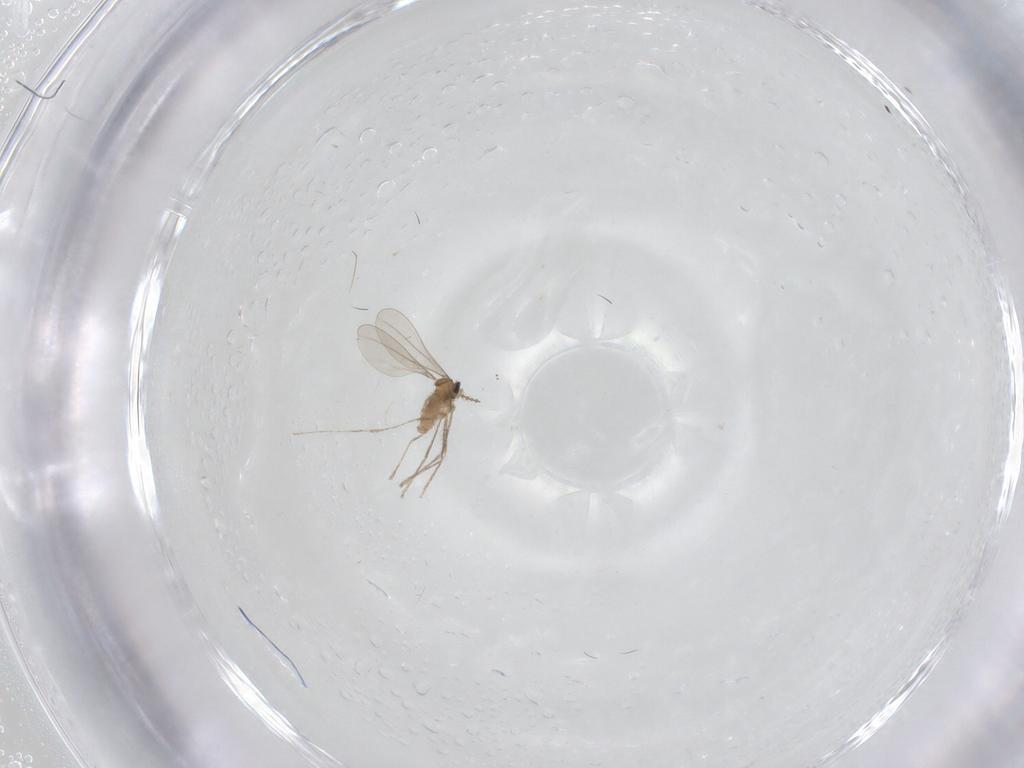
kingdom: Animalia
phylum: Arthropoda
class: Insecta
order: Diptera
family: Cecidomyiidae
